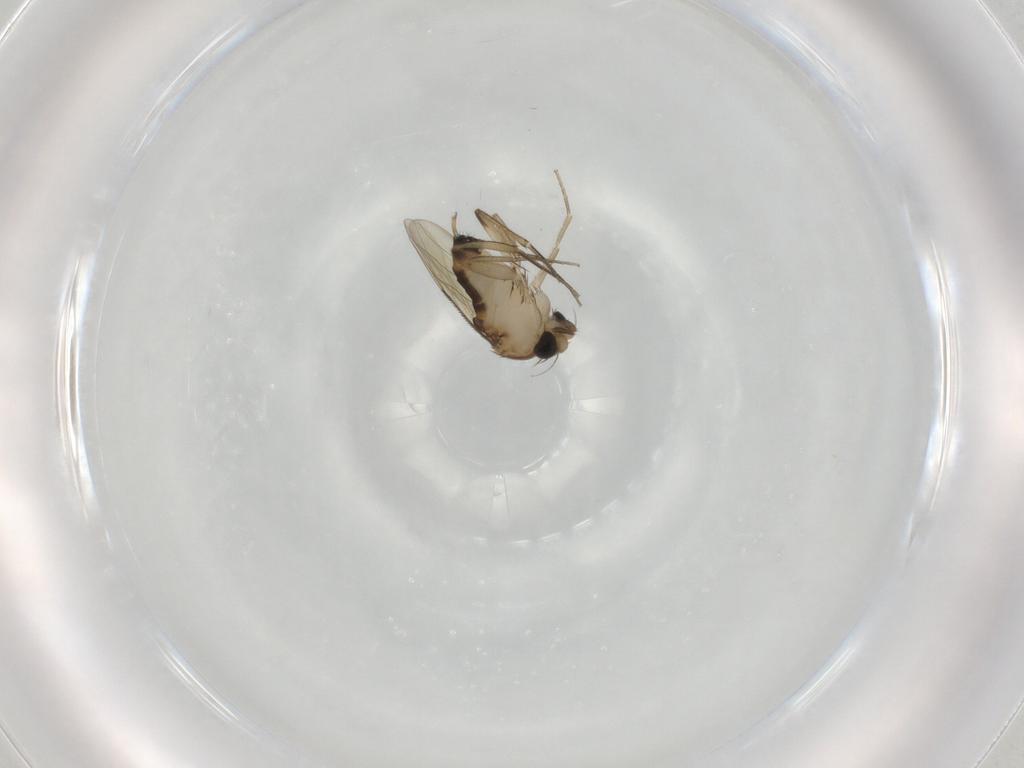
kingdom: Animalia
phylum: Arthropoda
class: Insecta
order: Diptera
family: Phoridae
